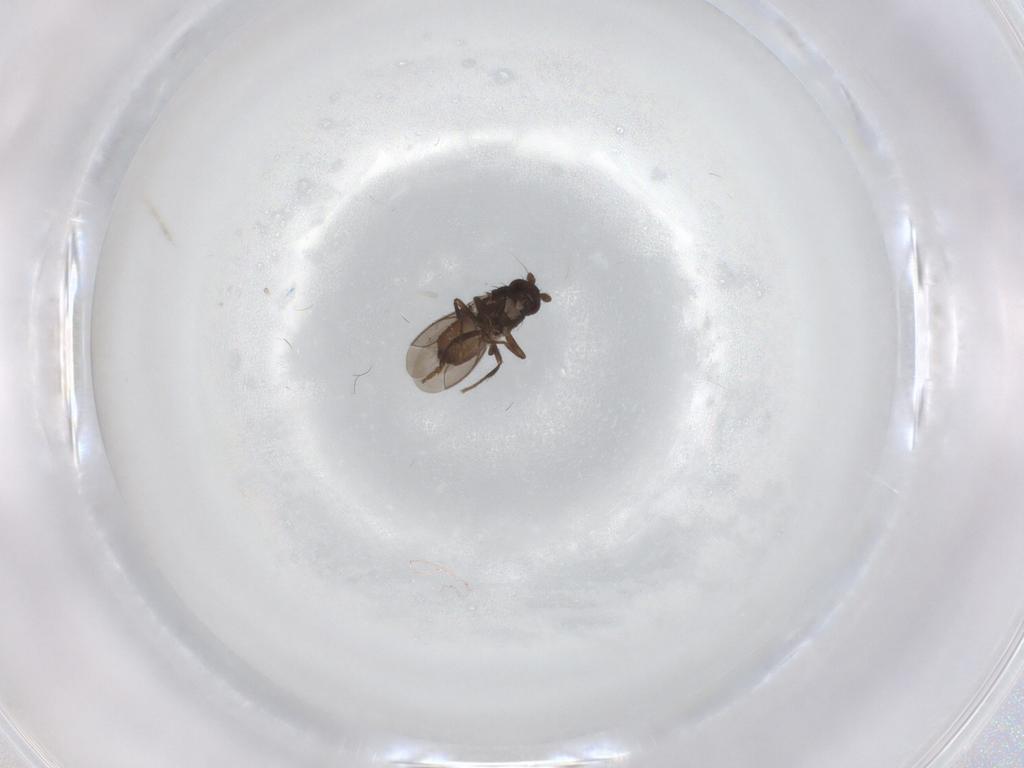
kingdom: Animalia
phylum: Arthropoda
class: Insecta
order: Diptera
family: Sphaeroceridae
